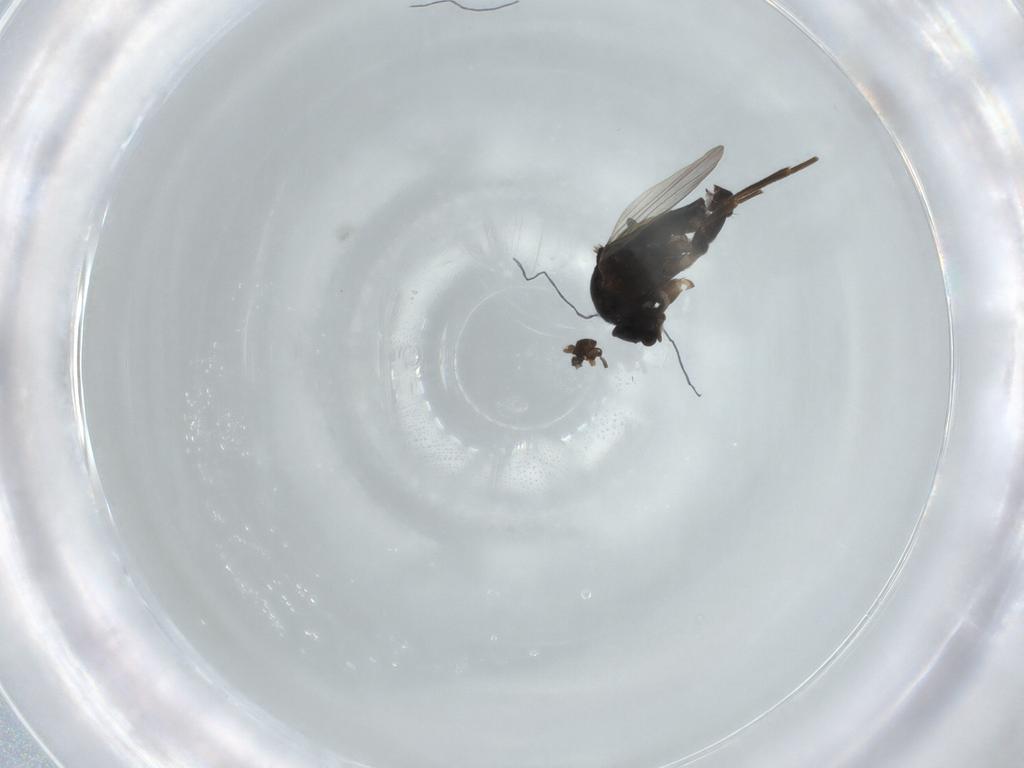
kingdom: Animalia
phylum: Arthropoda
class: Insecta
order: Diptera
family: Phoridae
